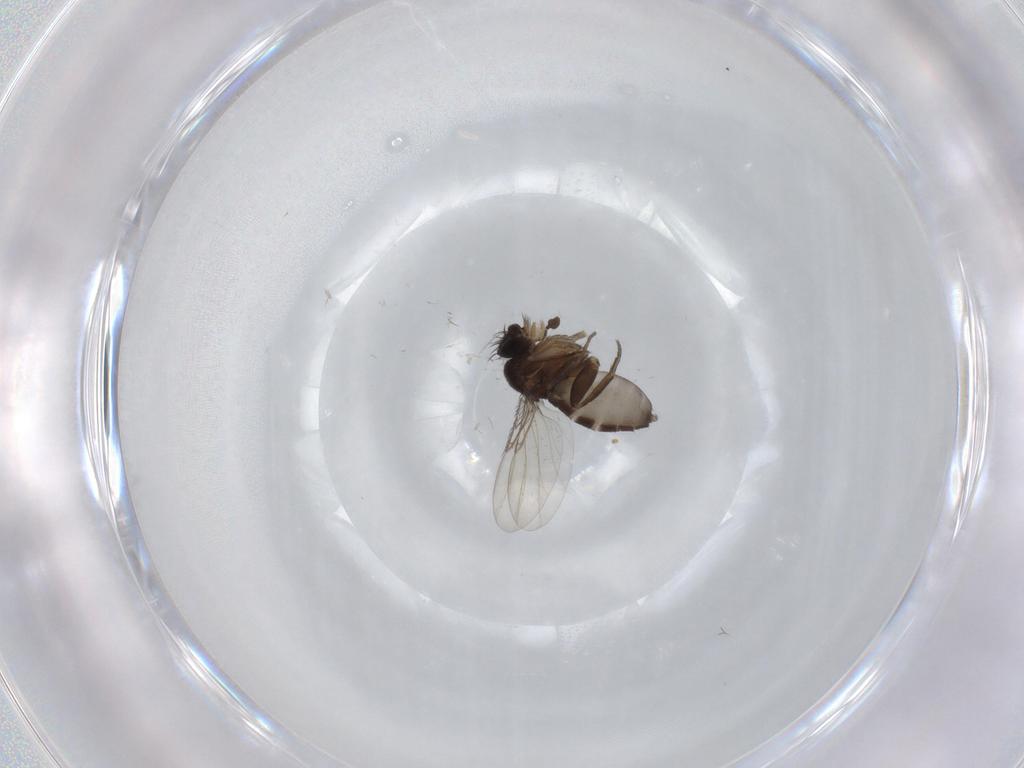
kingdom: Animalia
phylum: Arthropoda
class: Insecta
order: Diptera
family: Phoridae
